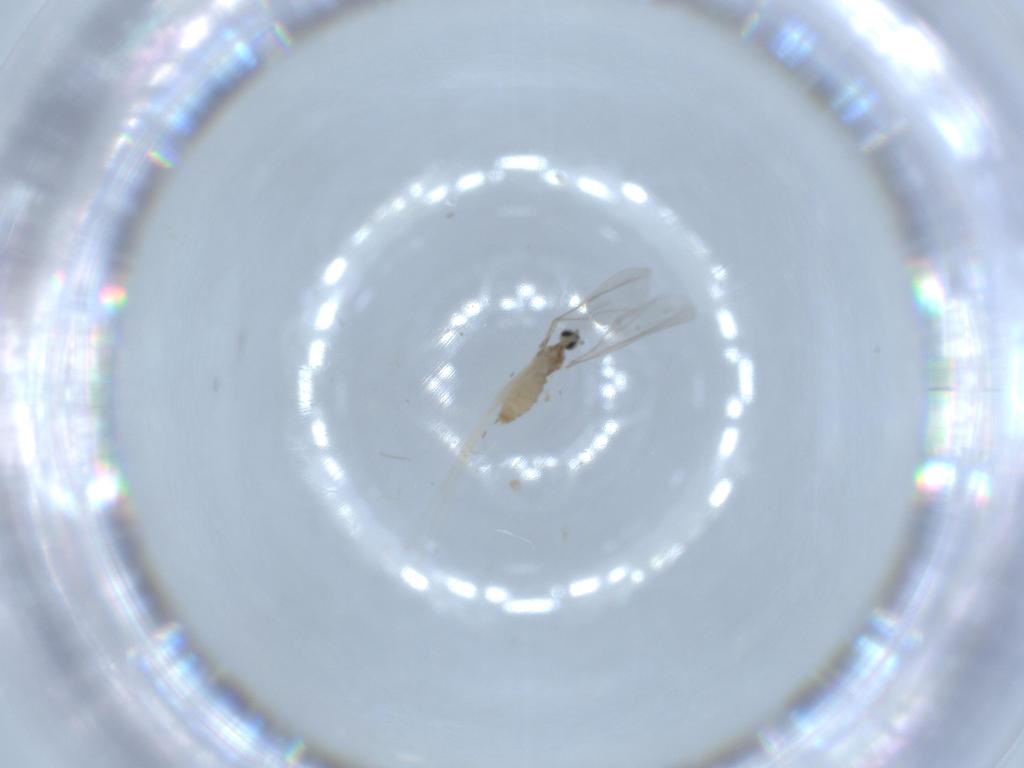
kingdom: Animalia
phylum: Arthropoda
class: Insecta
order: Diptera
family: Cecidomyiidae
